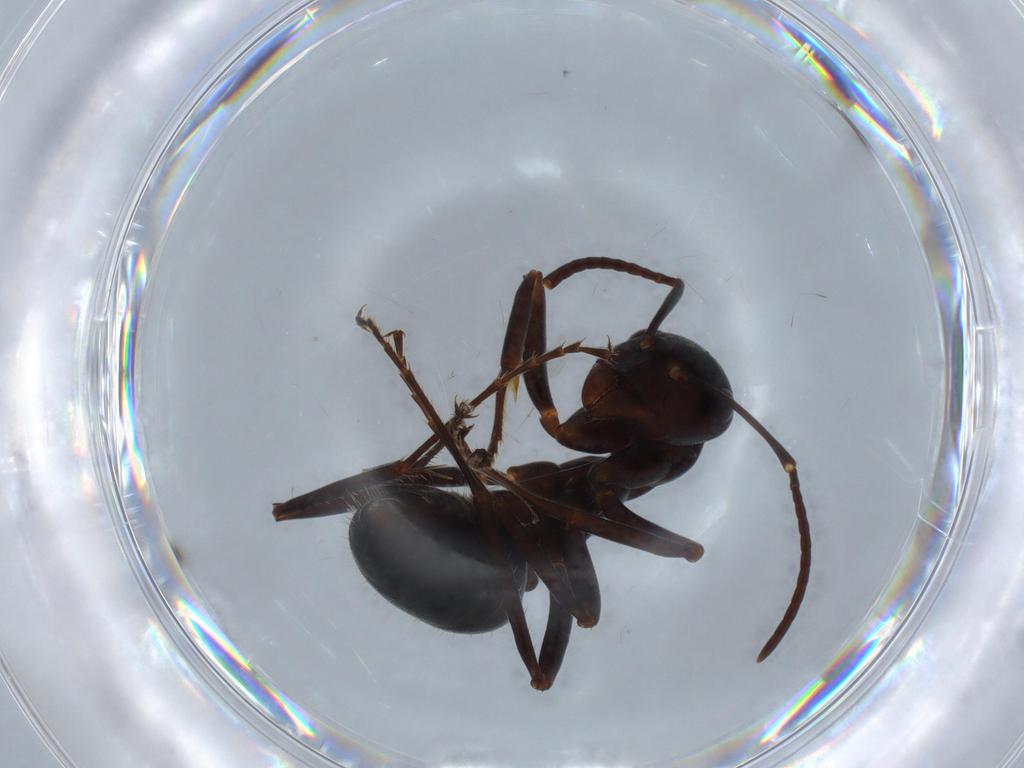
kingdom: Animalia
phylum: Arthropoda
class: Insecta
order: Hymenoptera
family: Formicidae
